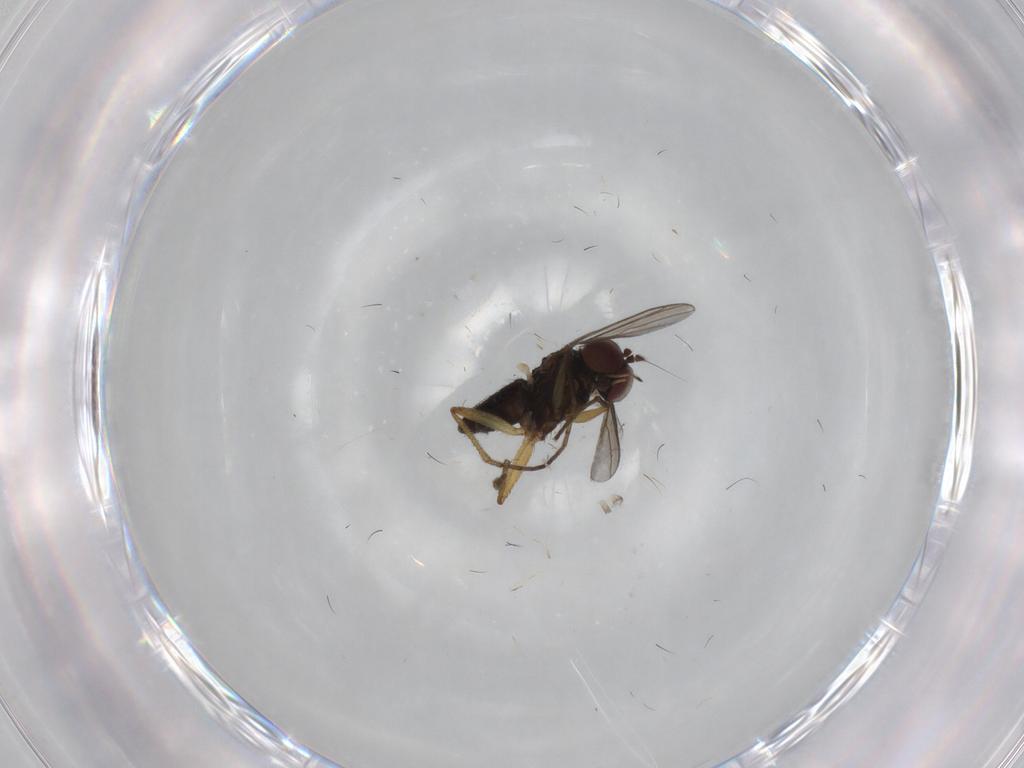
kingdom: Animalia
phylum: Arthropoda
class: Insecta
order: Diptera
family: Dolichopodidae
